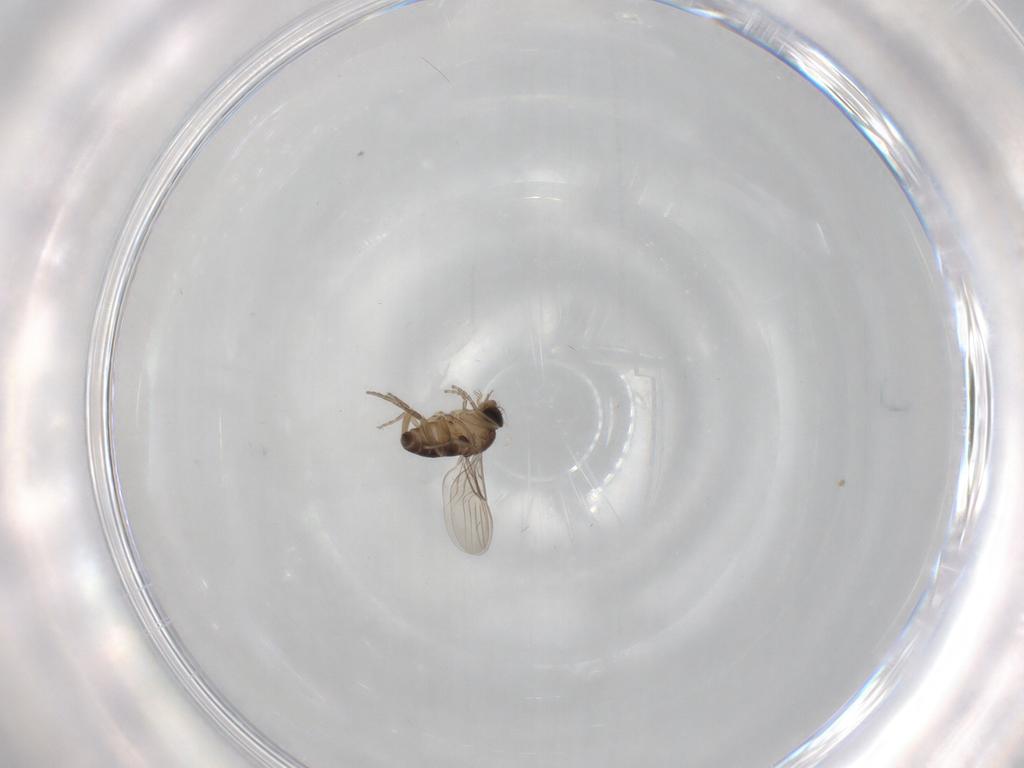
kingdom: Animalia
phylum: Arthropoda
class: Insecta
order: Diptera
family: Phoridae
